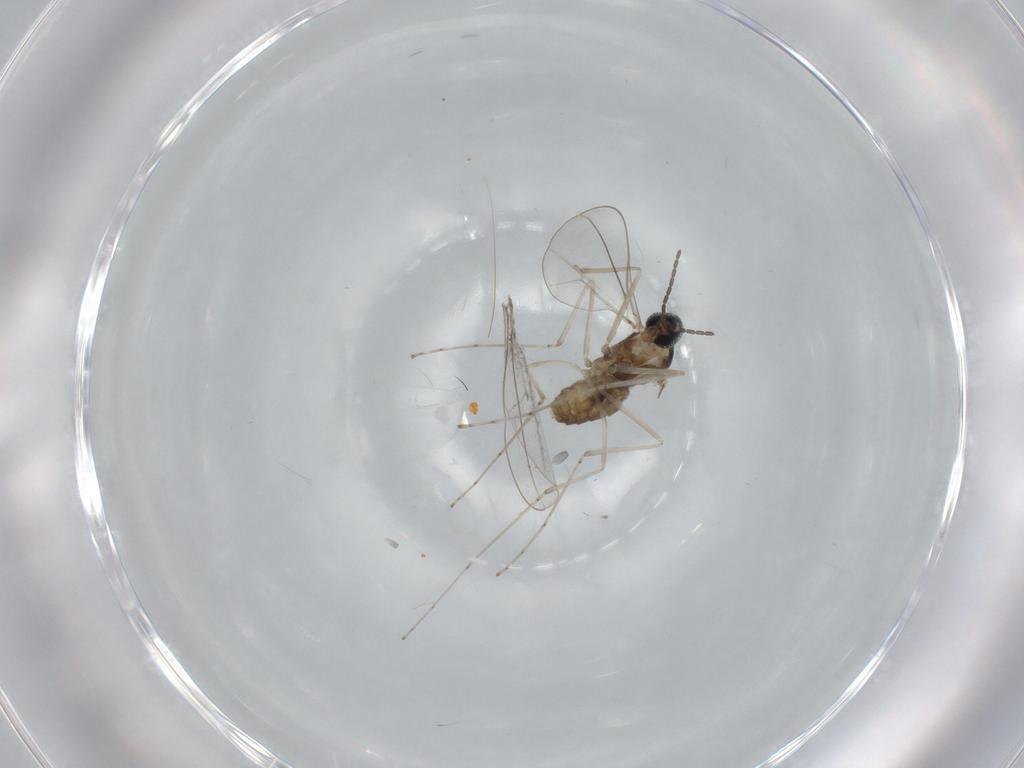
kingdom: Animalia
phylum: Arthropoda
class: Insecta
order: Diptera
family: Cecidomyiidae
